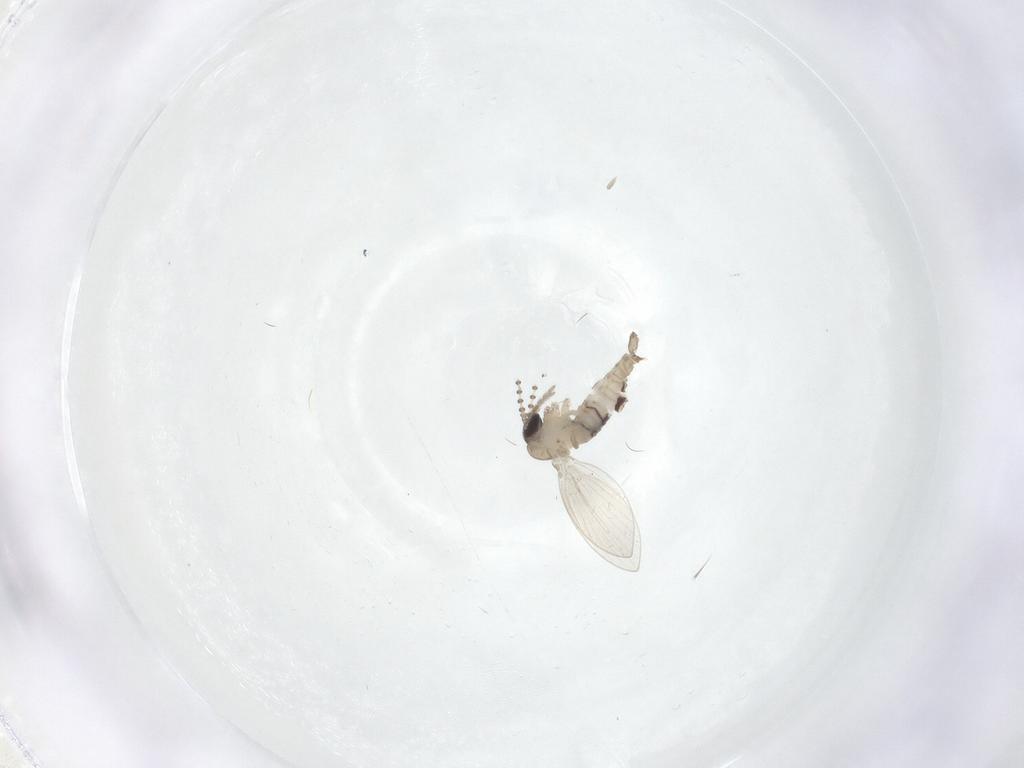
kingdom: Animalia
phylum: Arthropoda
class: Insecta
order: Diptera
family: Psychodidae
